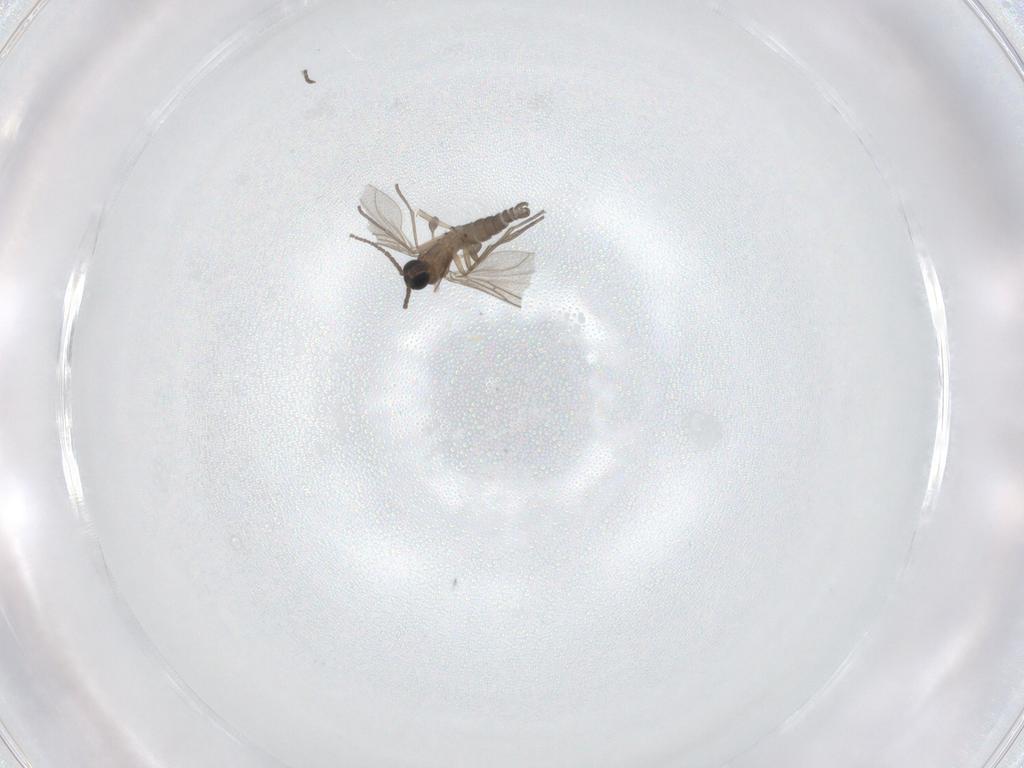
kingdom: Animalia
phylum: Arthropoda
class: Insecta
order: Diptera
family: Sciaridae
